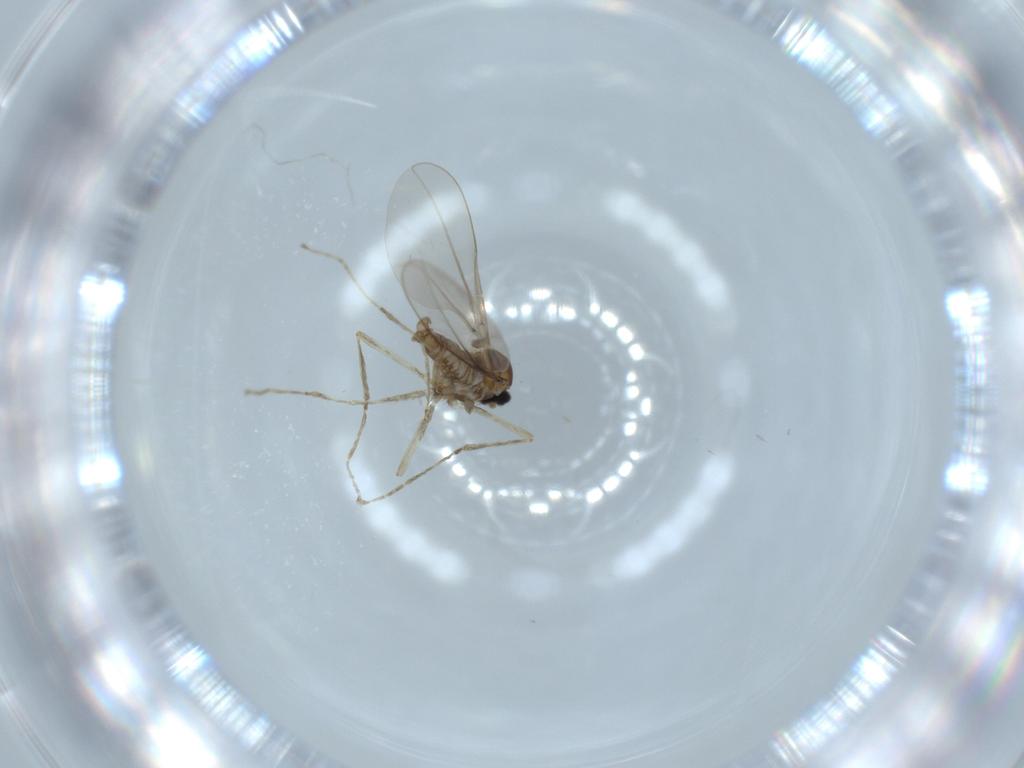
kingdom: Animalia
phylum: Arthropoda
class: Insecta
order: Diptera
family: Cecidomyiidae
